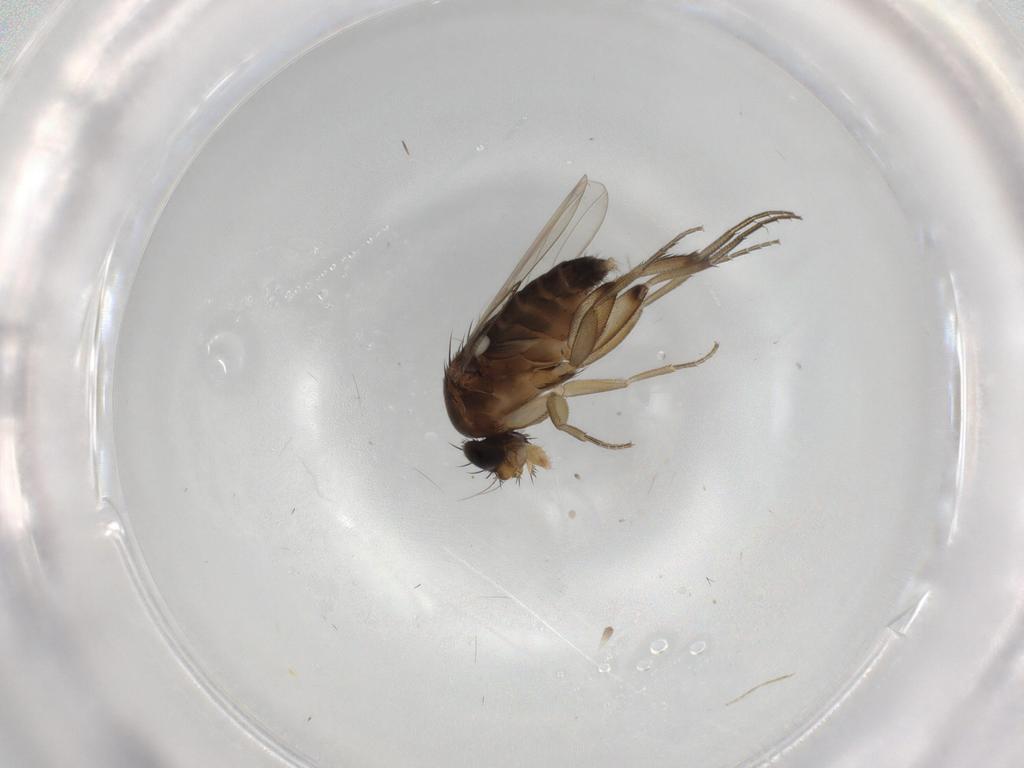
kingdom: Animalia
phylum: Arthropoda
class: Insecta
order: Diptera
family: Phoridae
